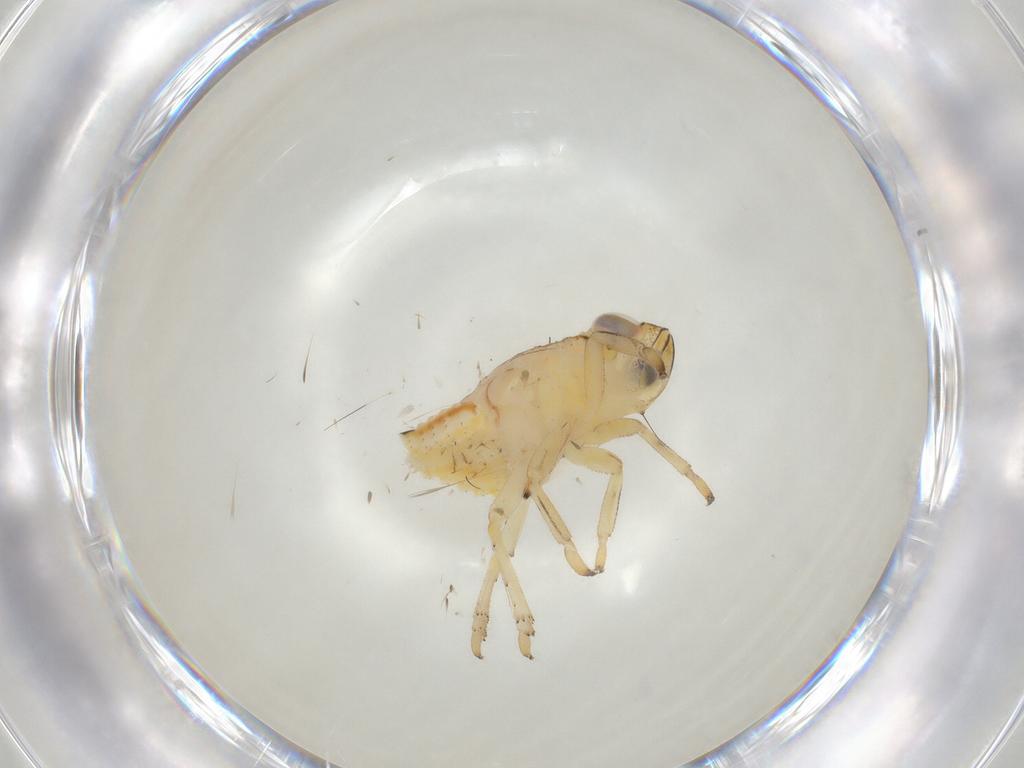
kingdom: Animalia
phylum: Arthropoda
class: Insecta
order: Hemiptera
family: Issidae
